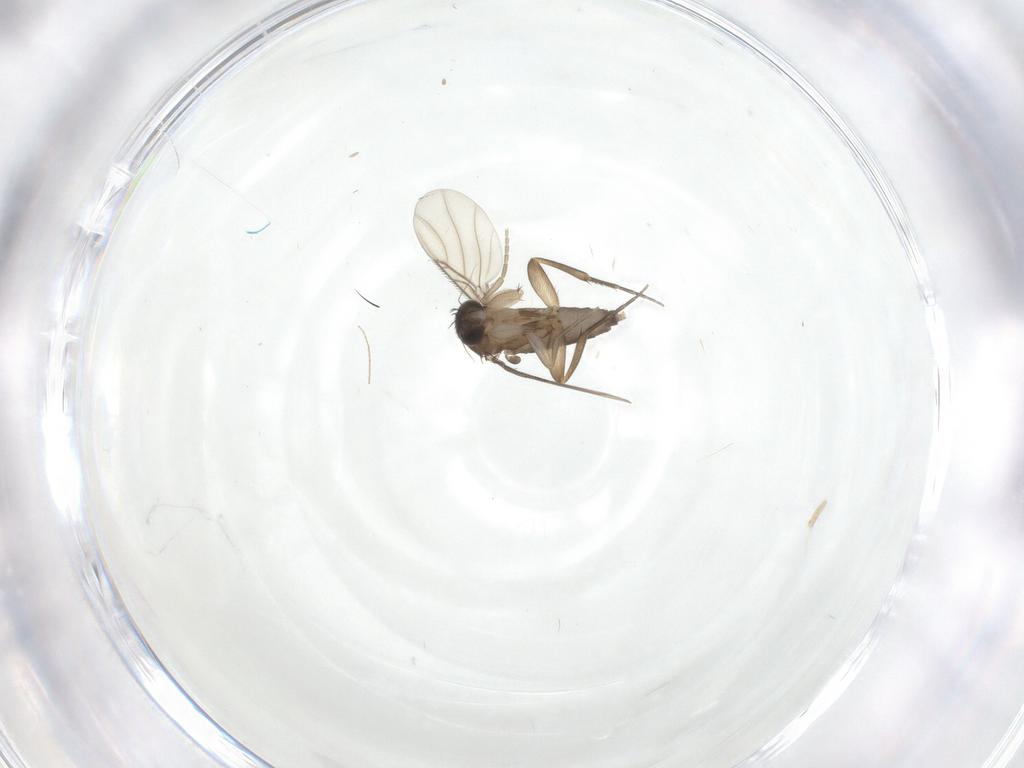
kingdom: Animalia
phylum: Arthropoda
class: Insecta
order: Diptera
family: Phoridae
